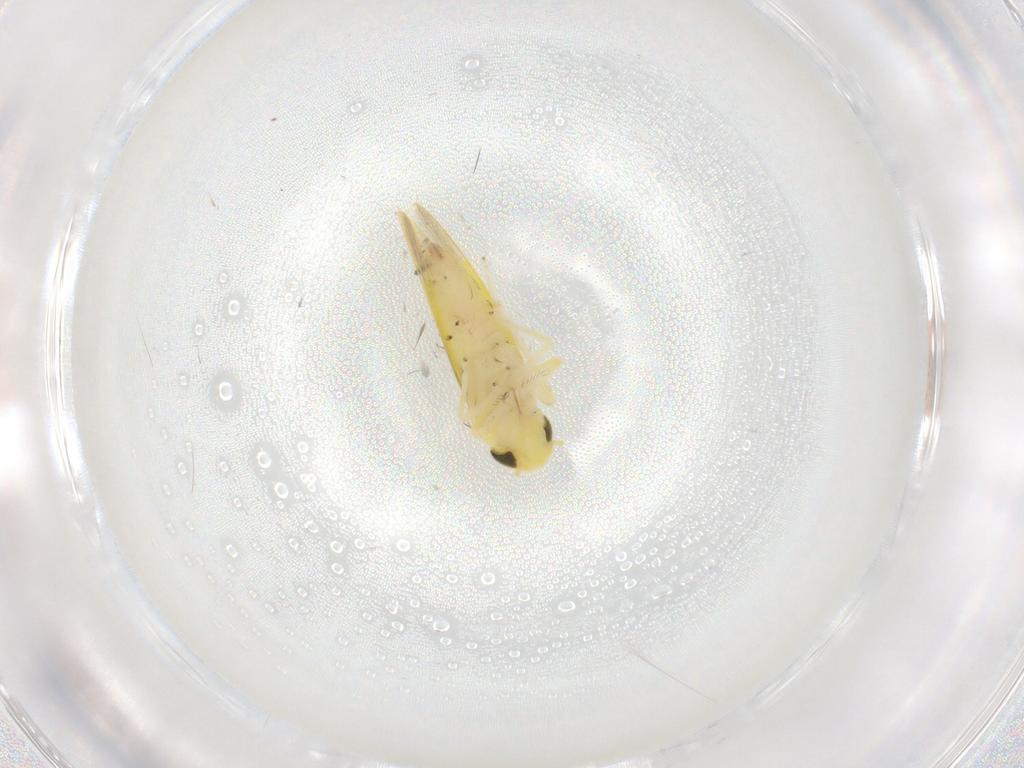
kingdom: Animalia
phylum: Arthropoda
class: Insecta
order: Hemiptera
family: Cicadellidae
